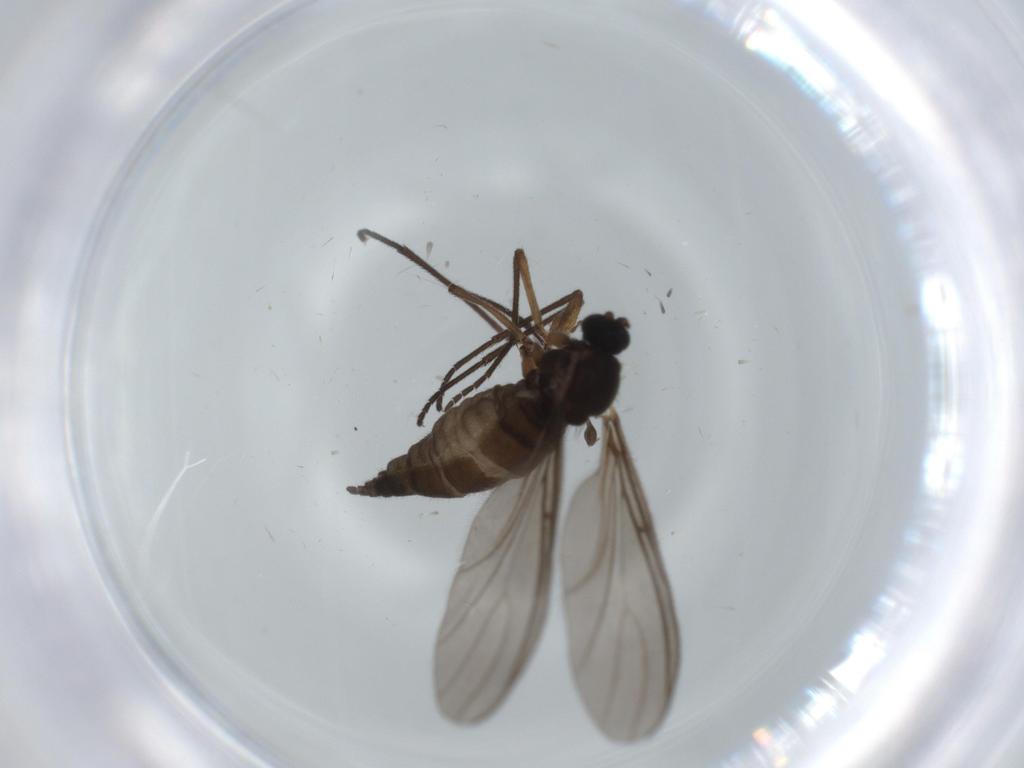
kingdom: Animalia
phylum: Arthropoda
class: Insecta
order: Diptera
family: Sciaridae
